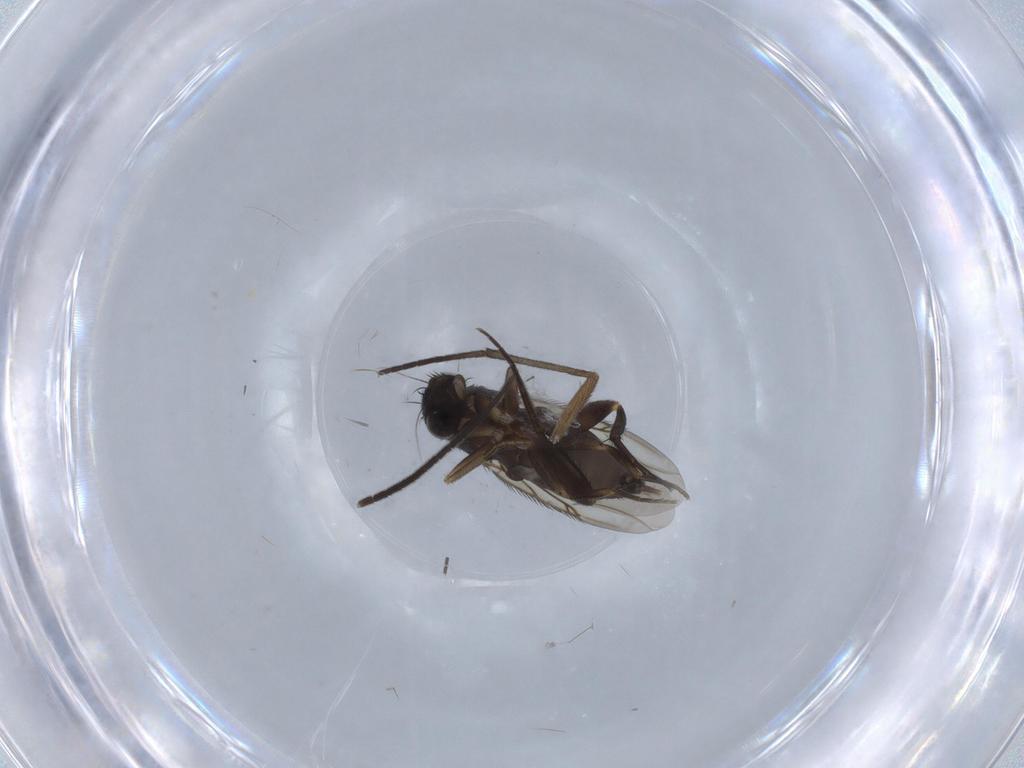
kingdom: Animalia
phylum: Arthropoda
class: Insecta
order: Diptera
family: Phoridae
